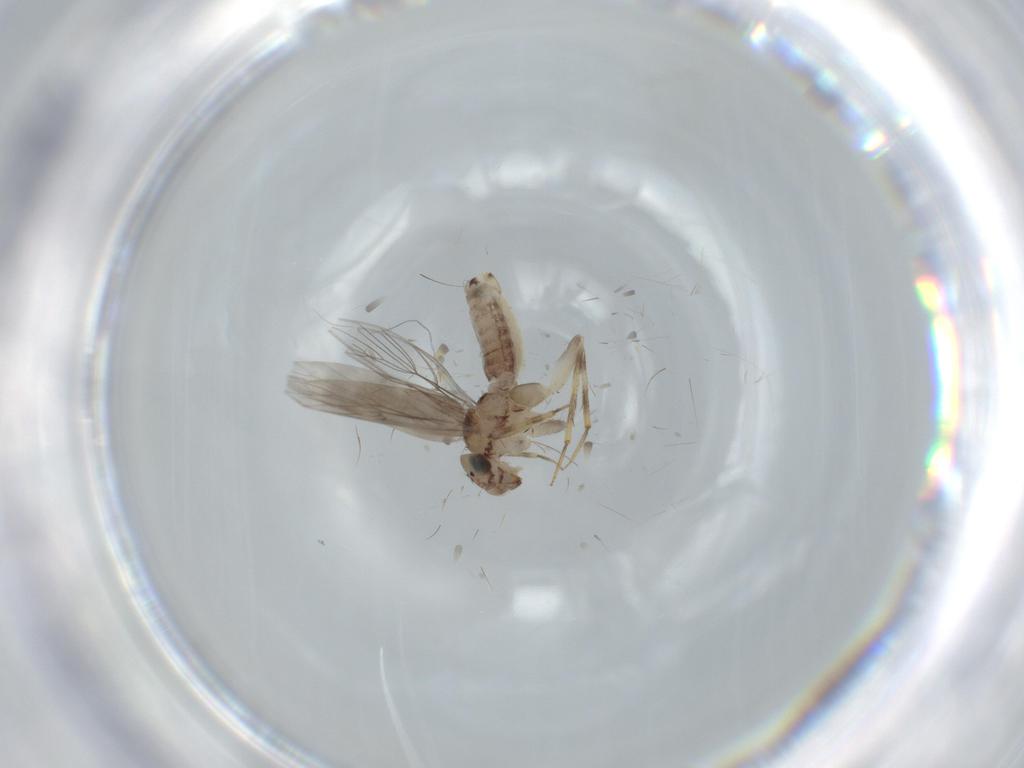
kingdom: Animalia
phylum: Arthropoda
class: Insecta
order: Psocodea
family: Lepidopsocidae
